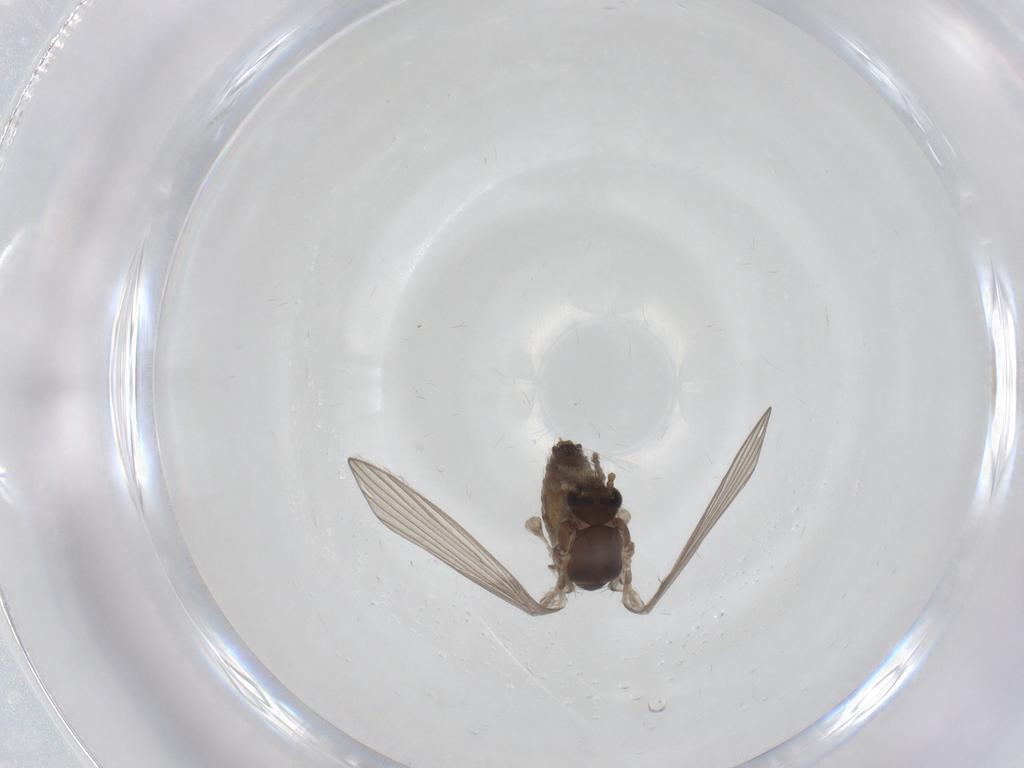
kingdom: Animalia
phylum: Arthropoda
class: Insecta
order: Diptera
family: Psychodidae
